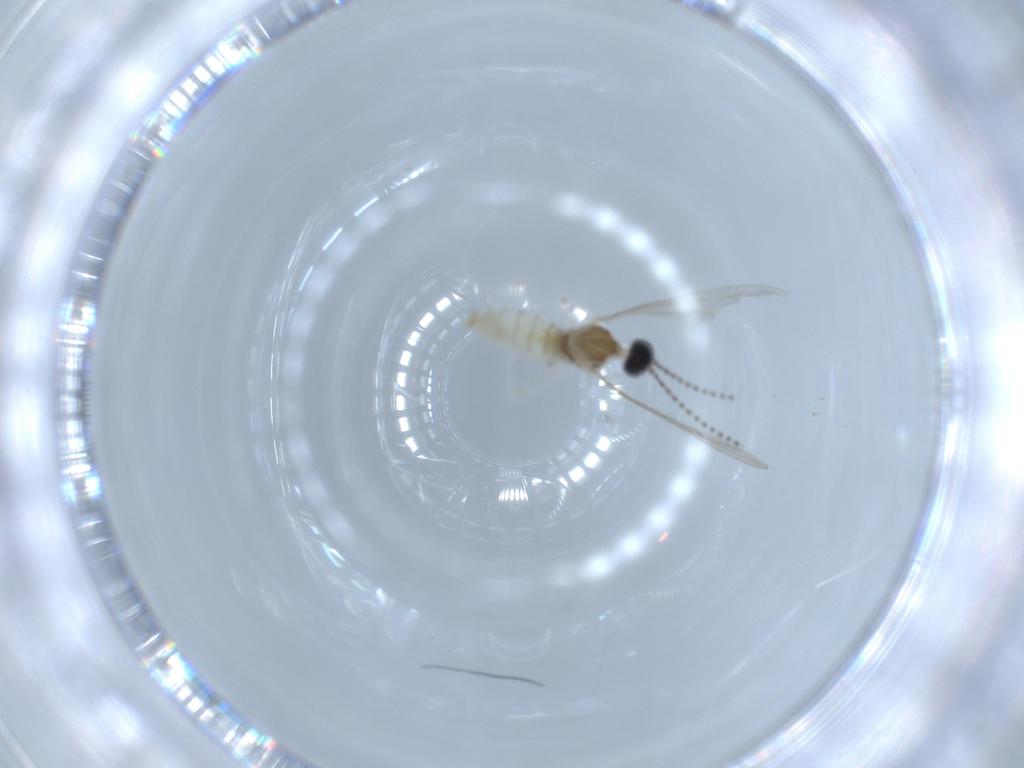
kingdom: Animalia
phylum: Arthropoda
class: Insecta
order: Diptera
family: Cecidomyiidae
